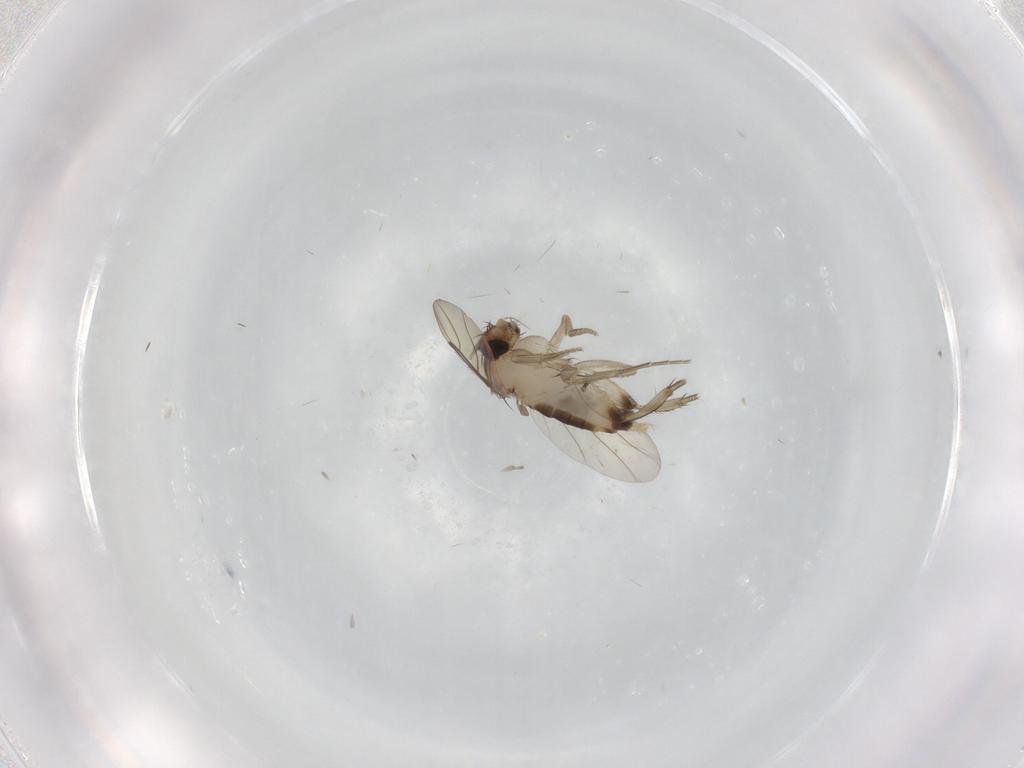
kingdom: Animalia
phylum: Arthropoda
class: Insecta
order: Diptera
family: Phoridae
